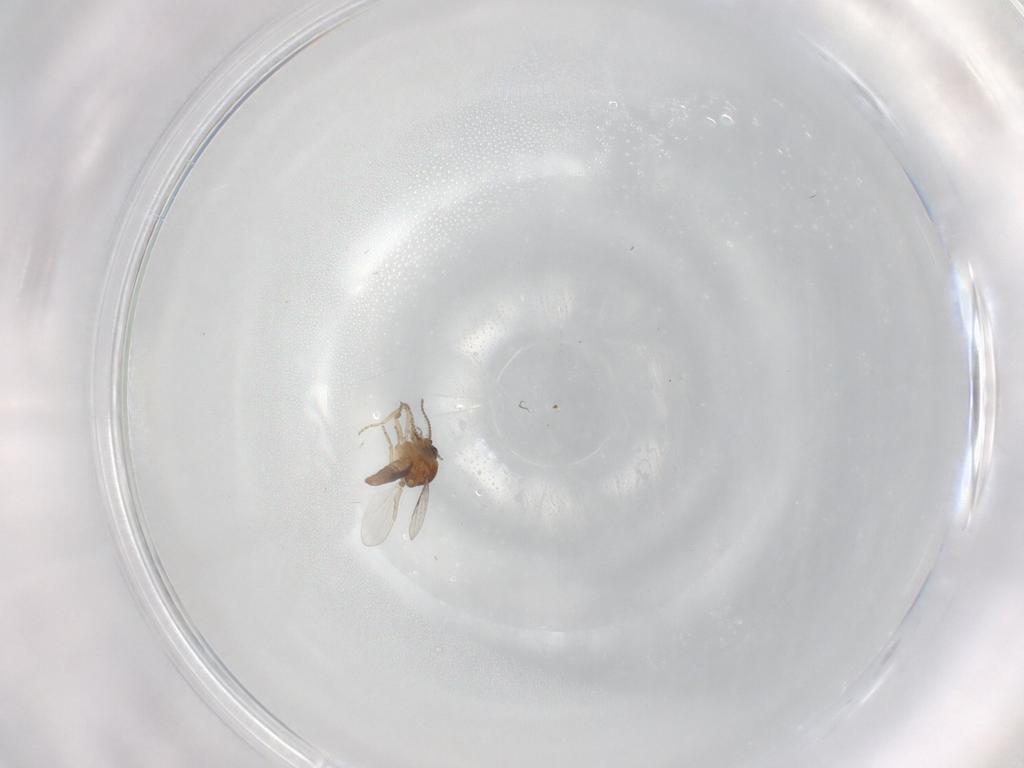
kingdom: Animalia
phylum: Arthropoda
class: Insecta
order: Diptera
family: Ceratopogonidae
